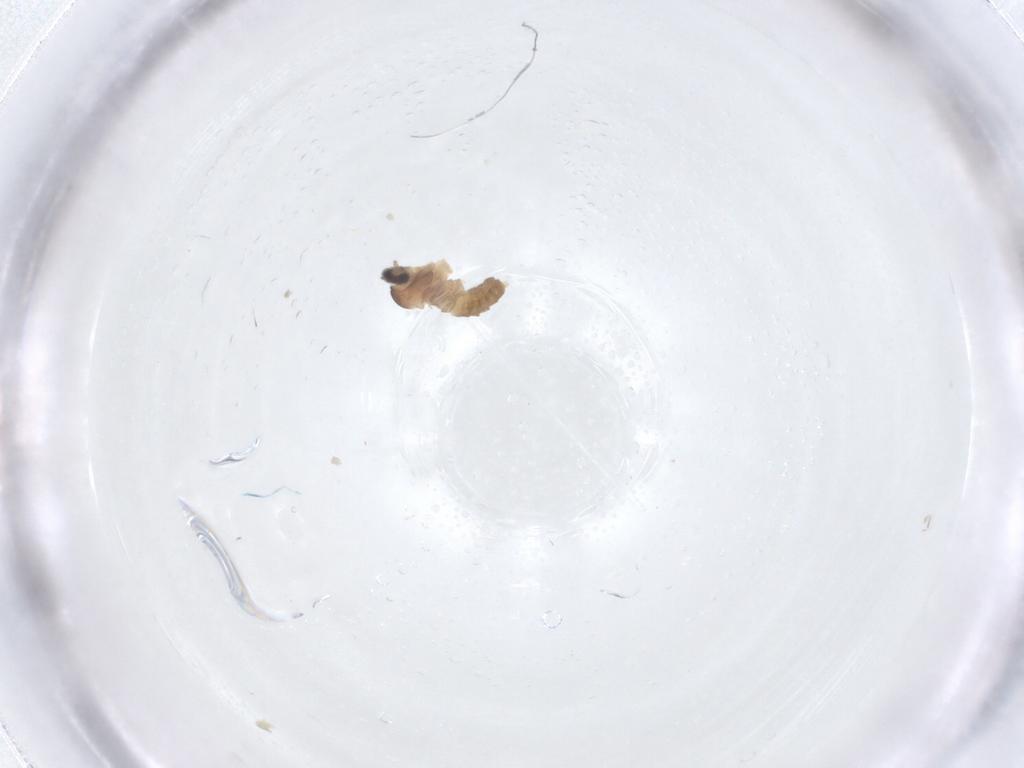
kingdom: Animalia
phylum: Arthropoda
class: Insecta
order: Diptera
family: Cecidomyiidae
